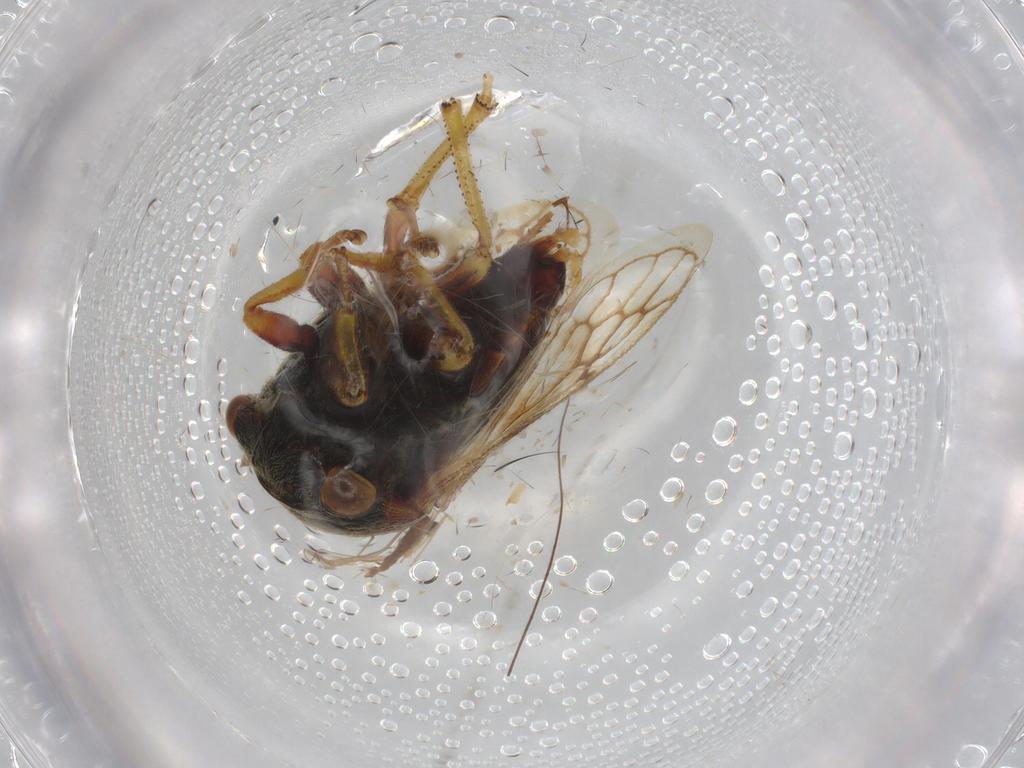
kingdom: Animalia
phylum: Arthropoda
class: Insecta
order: Hemiptera
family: Membracidae
